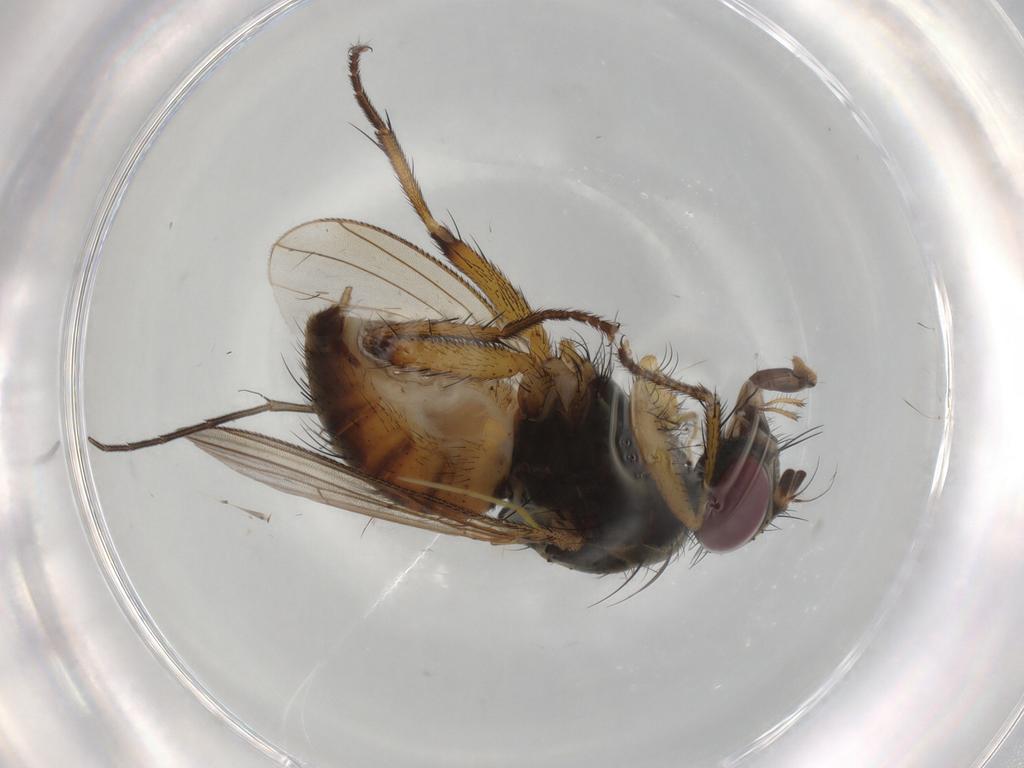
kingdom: Animalia
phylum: Arthropoda
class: Insecta
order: Diptera
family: Muscidae
